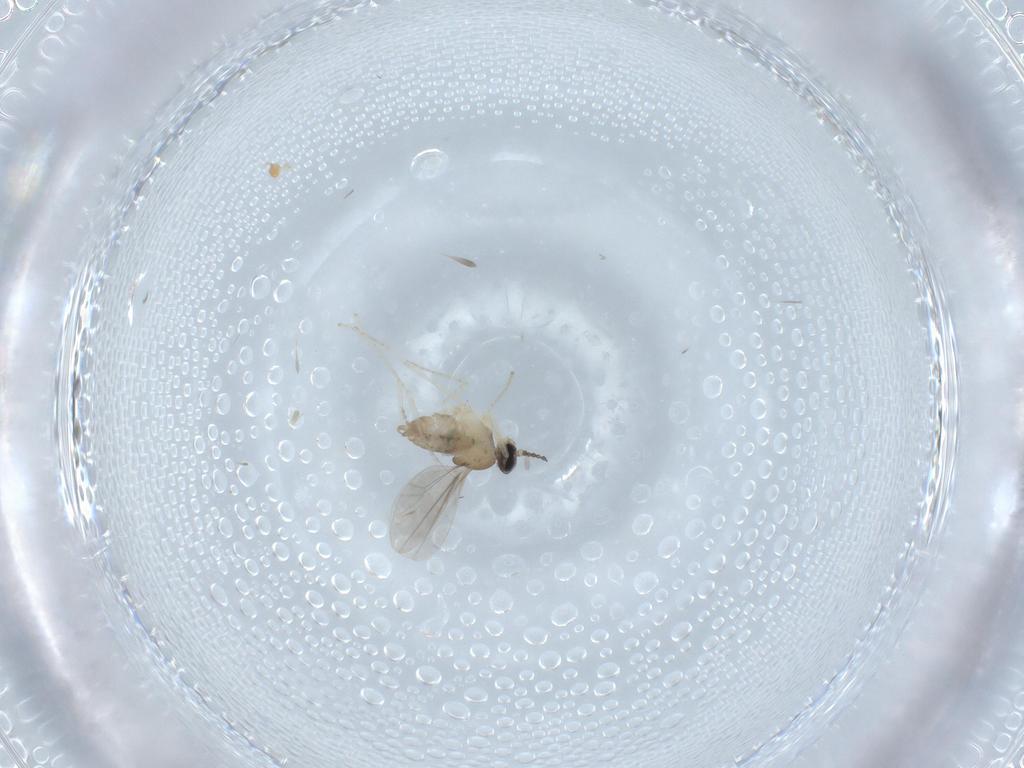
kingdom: Animalia
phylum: Arthropoda
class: Insecta
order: Diptera
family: Cecidomyiidae
